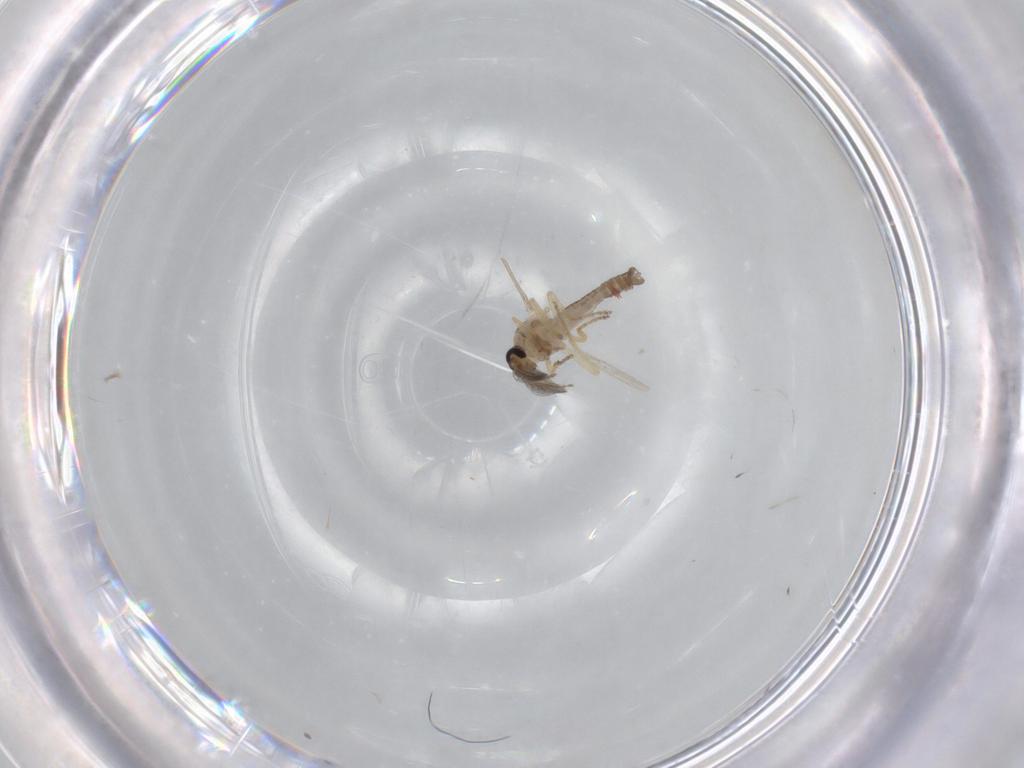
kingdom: Animalia
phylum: Arthropoda
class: Insecta
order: Diptera
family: Ceratopogonidae
